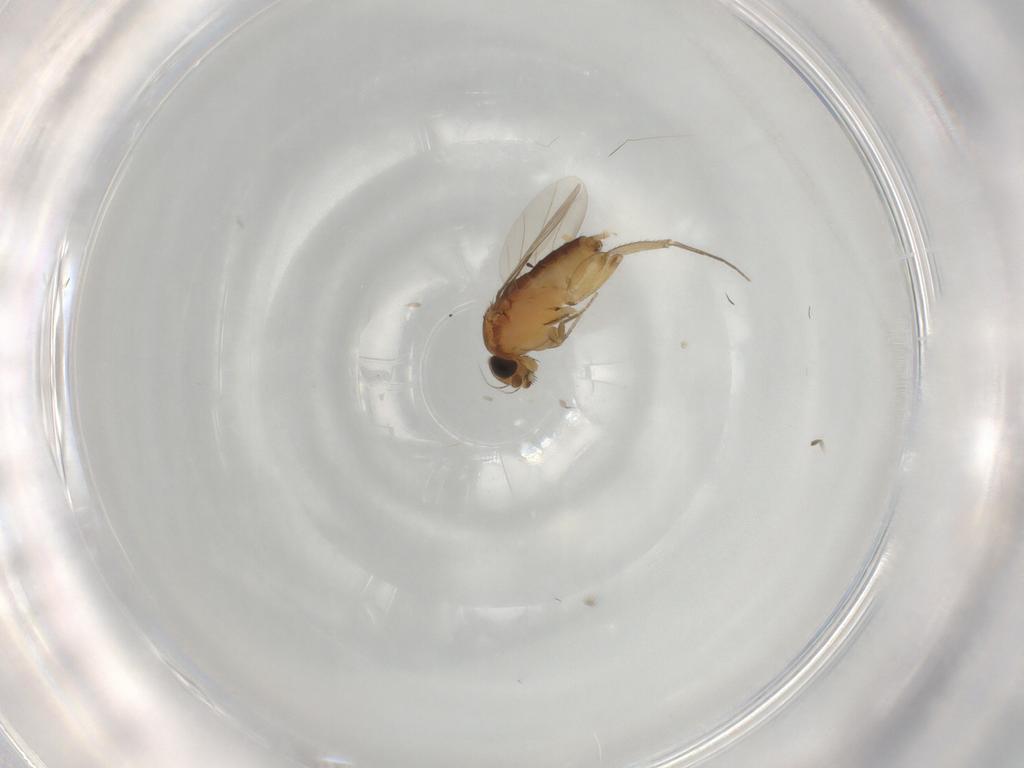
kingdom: Animalia
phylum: Arthropoda
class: Insecta
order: Diptera
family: Phoridae
